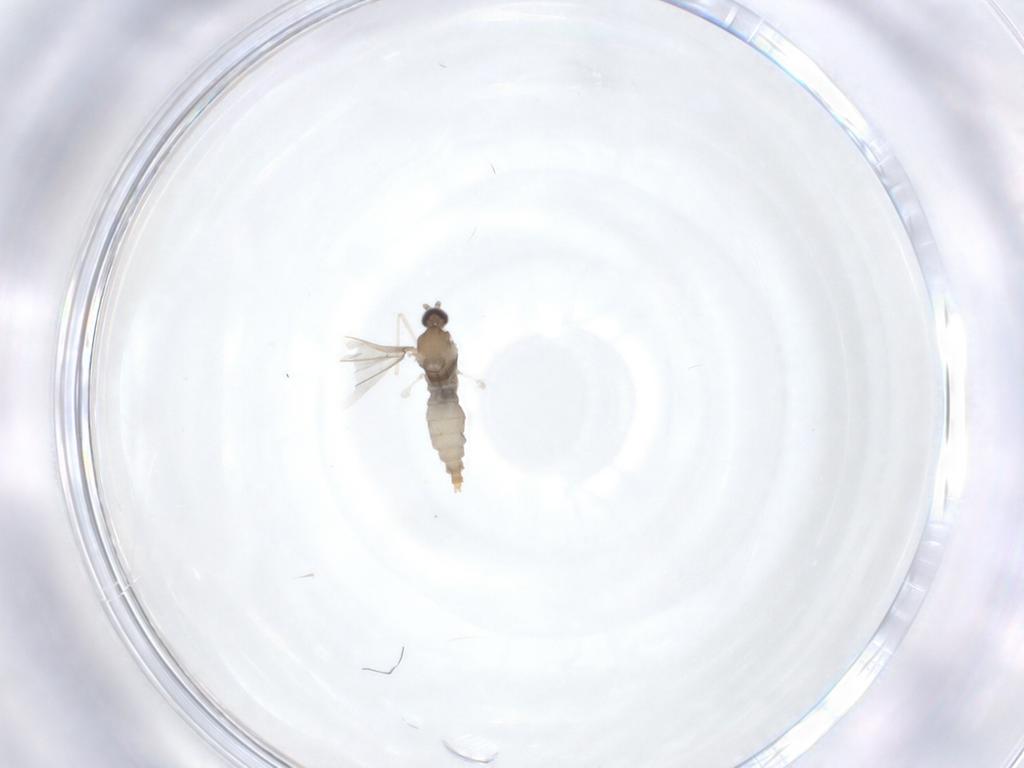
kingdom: Animalia
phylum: Arthropoda
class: Insecta
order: Diptera
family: Cecidomyiidae
